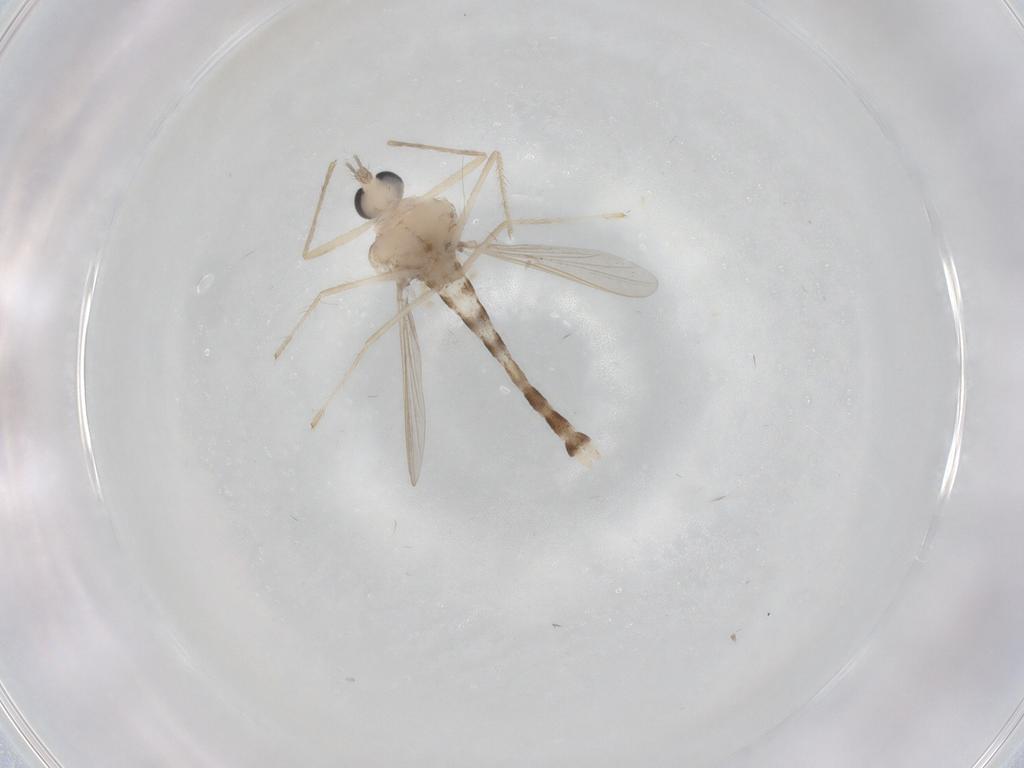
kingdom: Animalia
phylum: Arthropoda
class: Insecta
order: Diptera
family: Chironomidae
